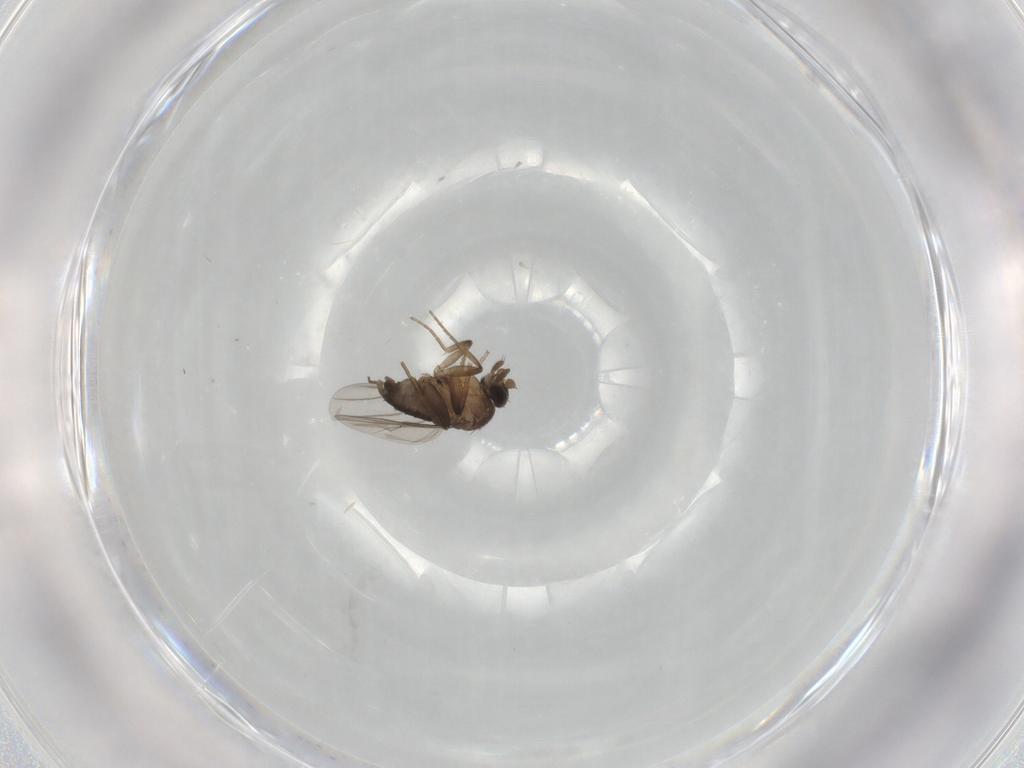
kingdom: Animalia
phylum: Arthropoda
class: Insecta
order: Diptera
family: Phoridae
